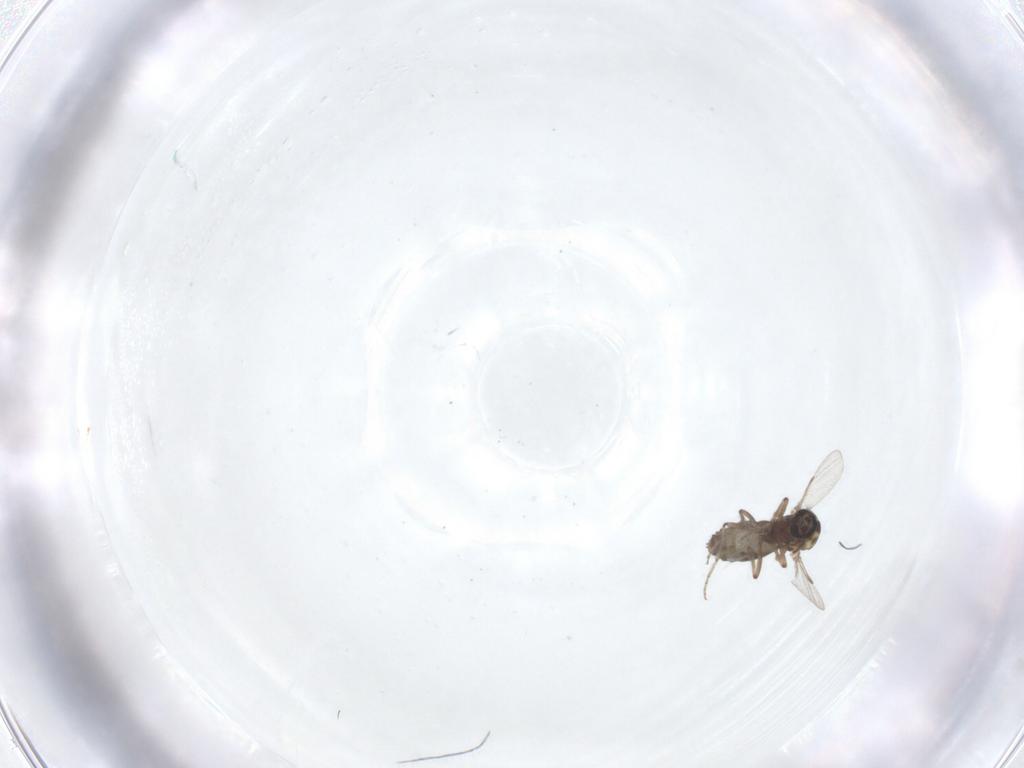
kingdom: Animalia
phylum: Arthropoda
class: Insecta
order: Diptera
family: Ceratopogonidae
